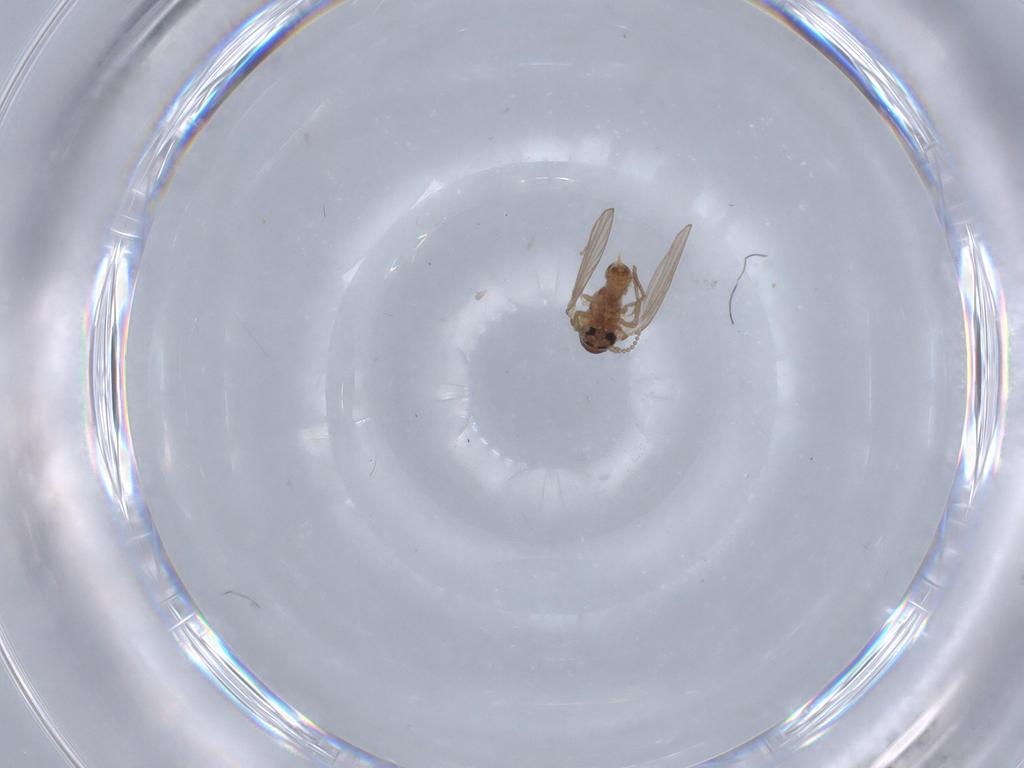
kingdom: Animalia
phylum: Arthropoda
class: Insecta
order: Diptera
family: Psychodidae
